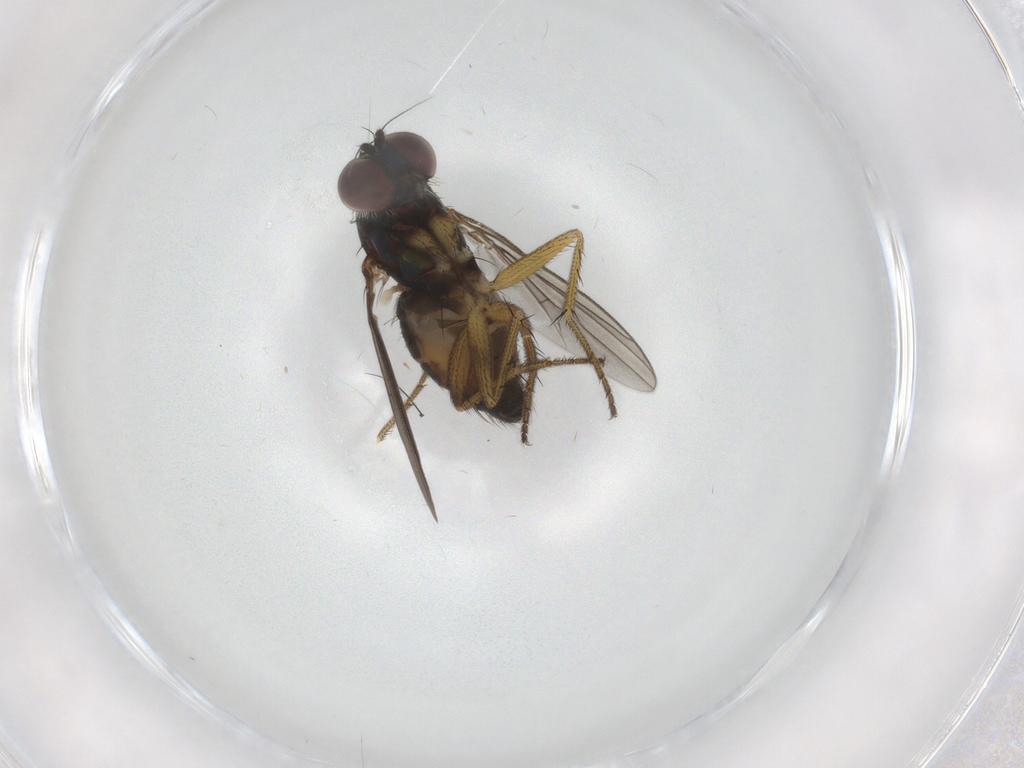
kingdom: Animalia
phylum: Arthropoda
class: Insecta
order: Diptera
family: Dolichopodidae
